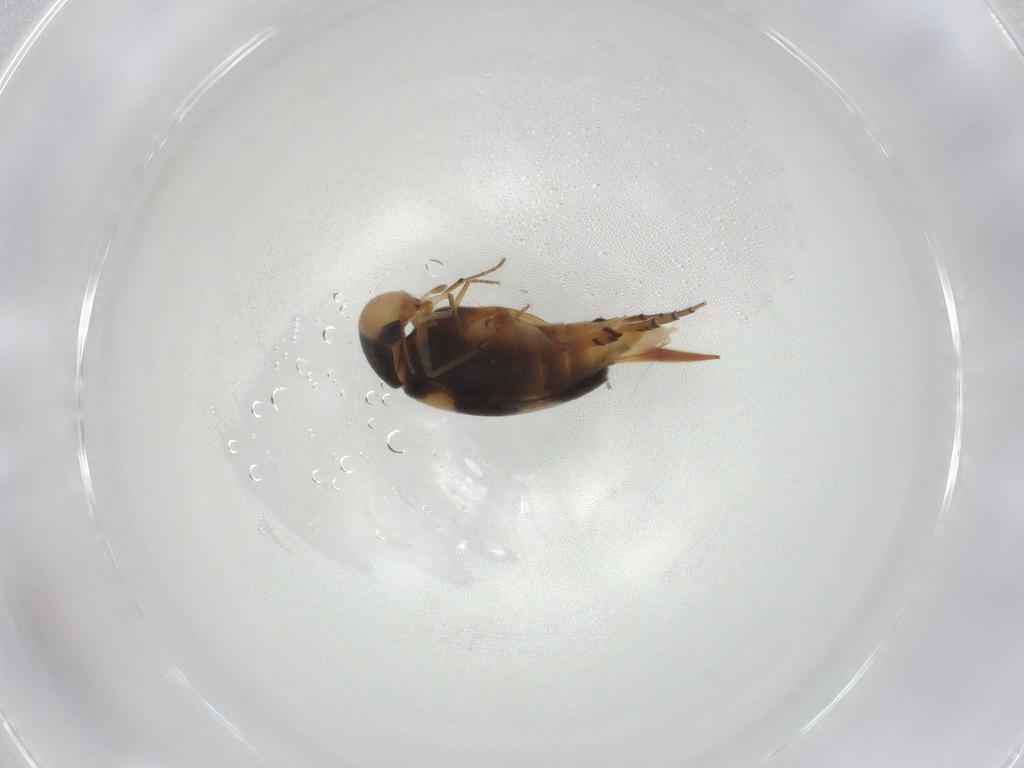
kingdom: Animalia
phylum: Arthropoda
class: Insecta
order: Coleoptera
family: Mordellidae
